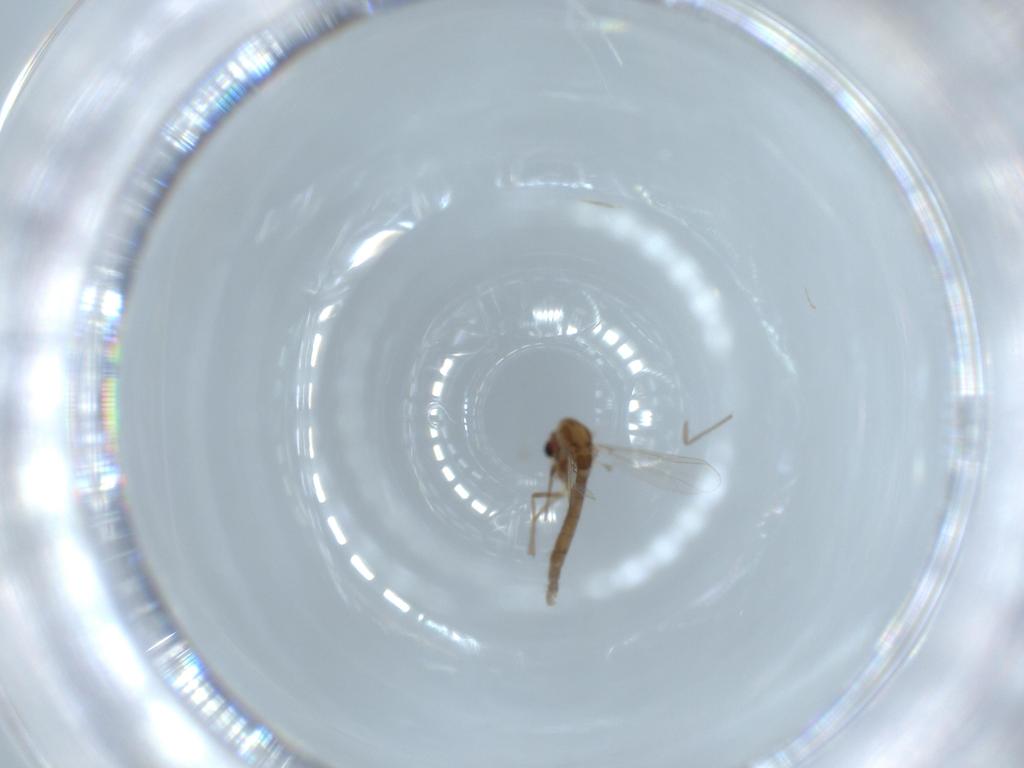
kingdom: Animalia
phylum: Arthropoda
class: Insecta
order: Diptera
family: Chironomidae
